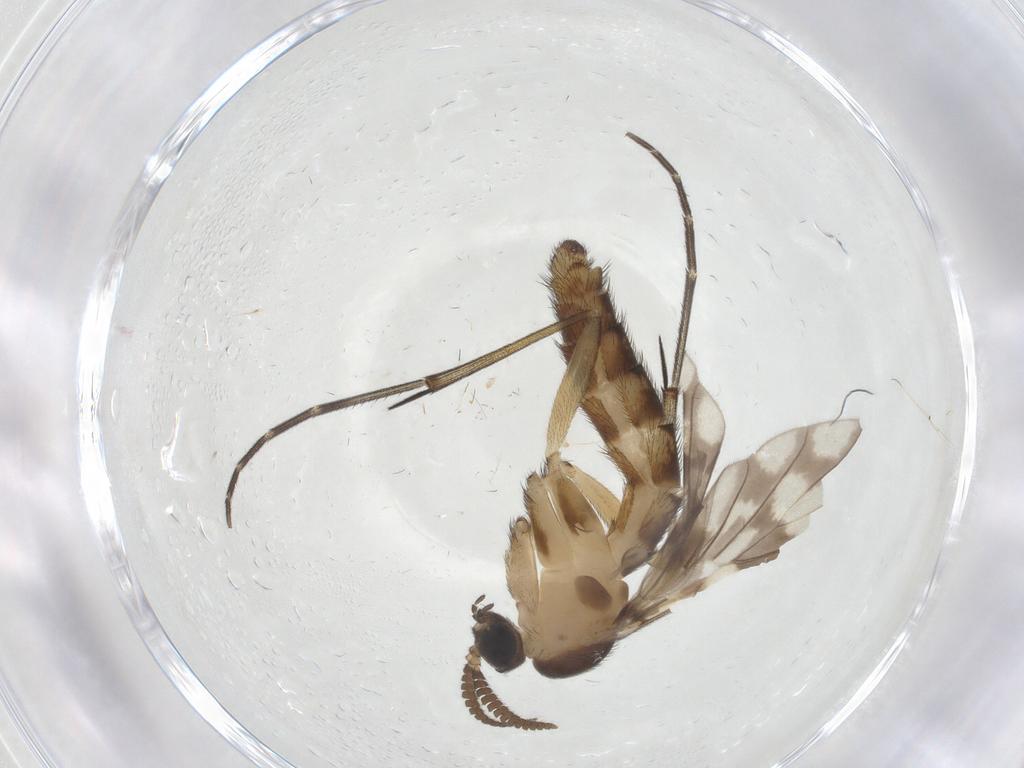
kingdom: Animalia
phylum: Arthropoda
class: Insecta
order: Diptera
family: Keroplatidae
